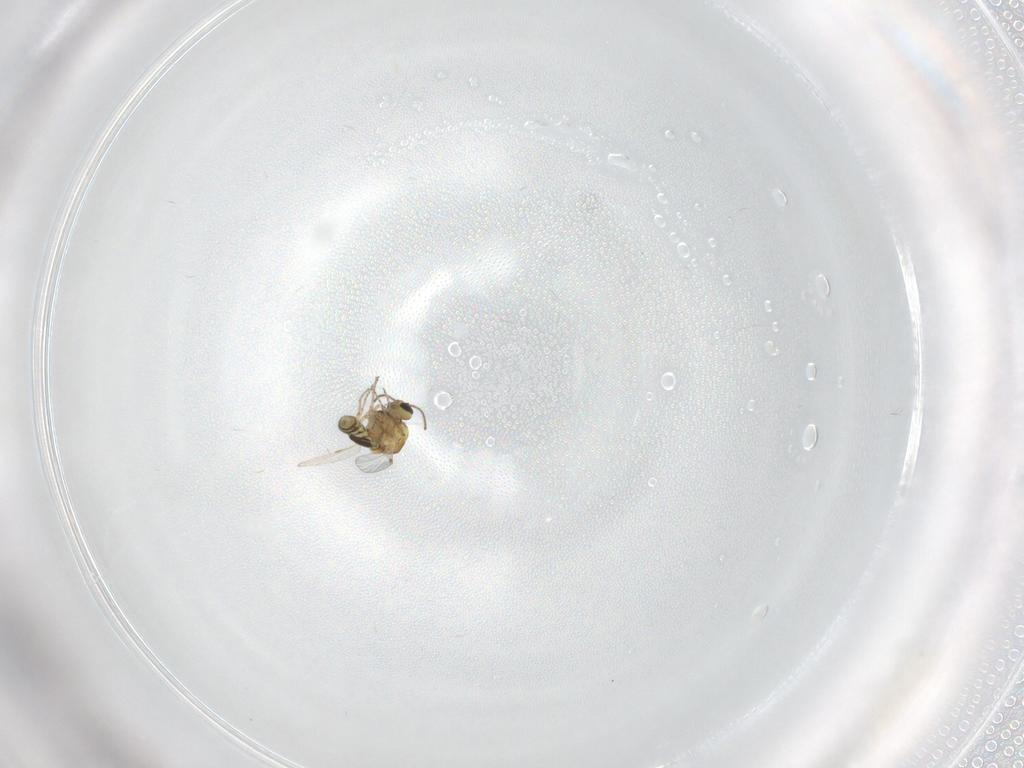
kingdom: Animalia
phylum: Arthropoda
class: Insecta
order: Diptera
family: Ceratopogonidae
